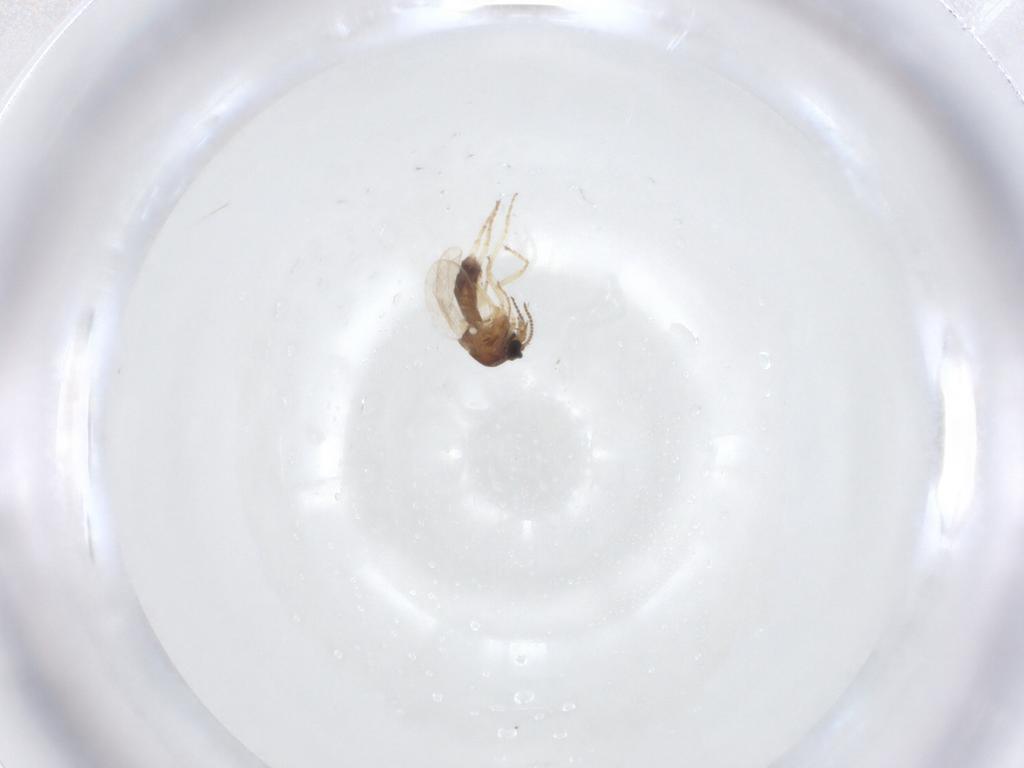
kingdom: Animalia
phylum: Arthropoda
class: Insecta
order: Diptera
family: Ceratopogonidae
